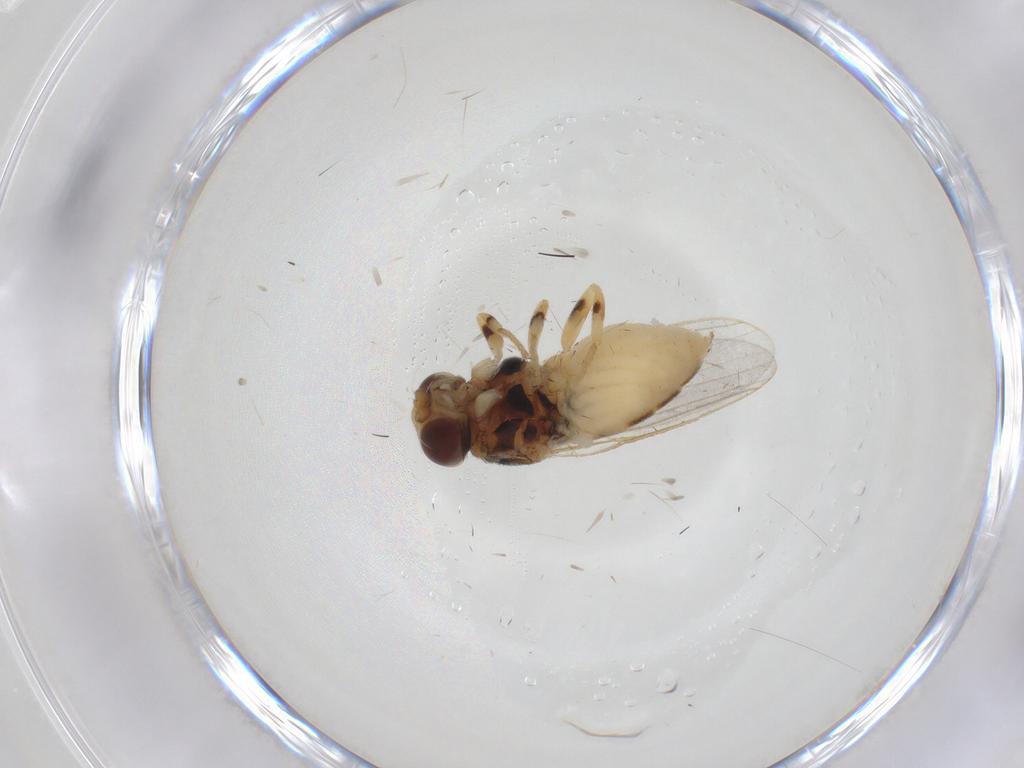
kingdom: Animalia
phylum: Arthropoda
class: Insecta
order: Diptera
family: Chloropidae
